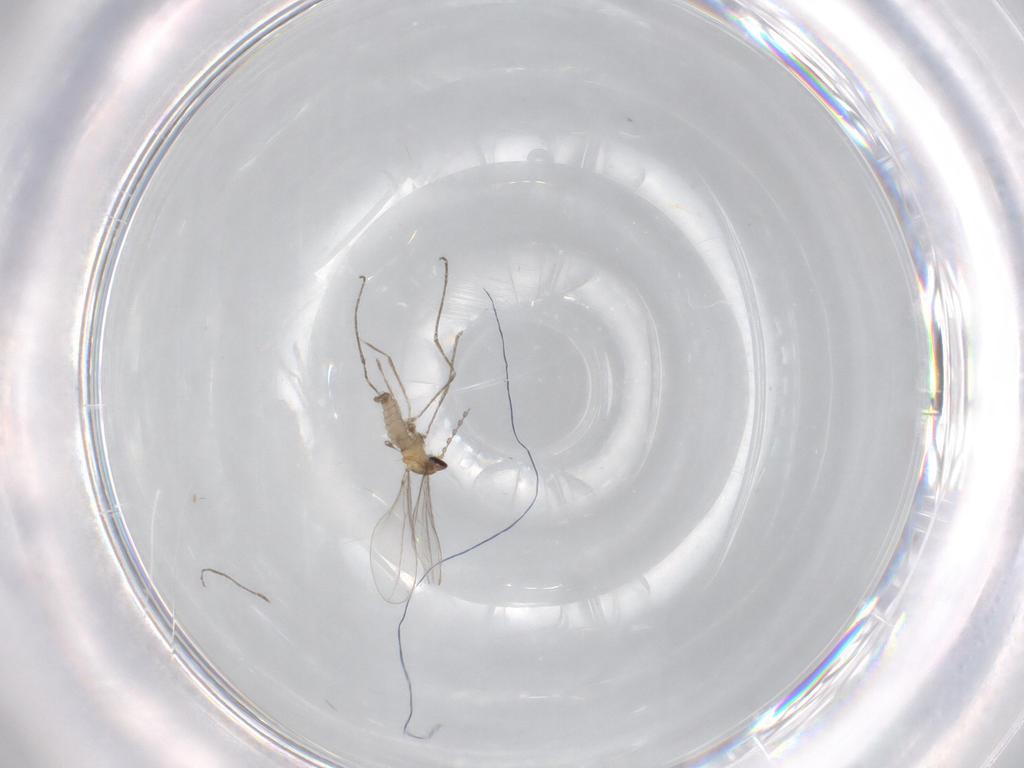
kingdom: Animalia
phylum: Arthropoda
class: Insecta
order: Diptera
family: Cecidomyiidae
